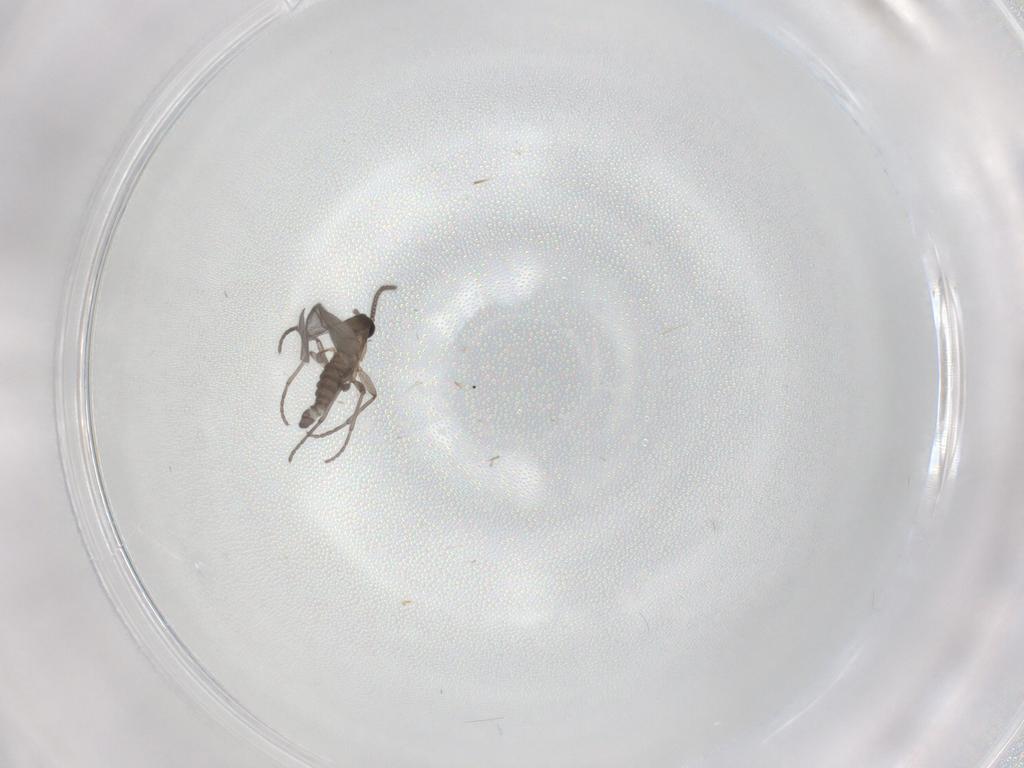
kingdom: Animalia
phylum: Arthropoda
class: Insecta
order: Diptera
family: Sciaridae
